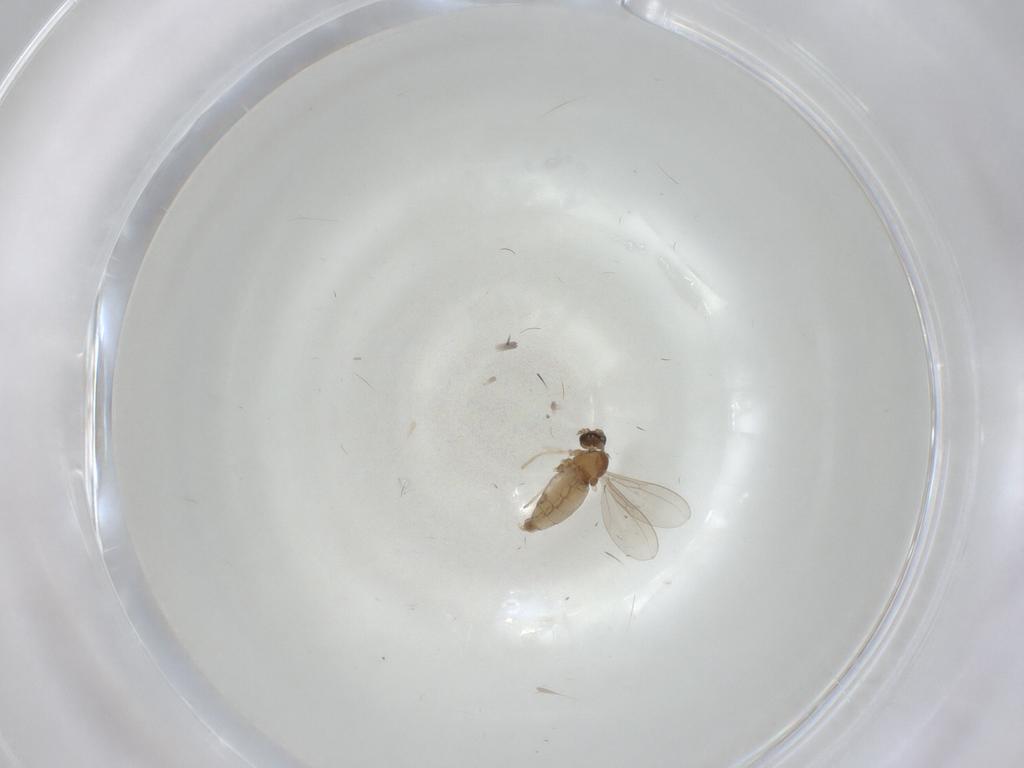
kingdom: Animalia
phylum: Arthropoda
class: Insecta
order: Diptera
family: Cecidomyiidae
